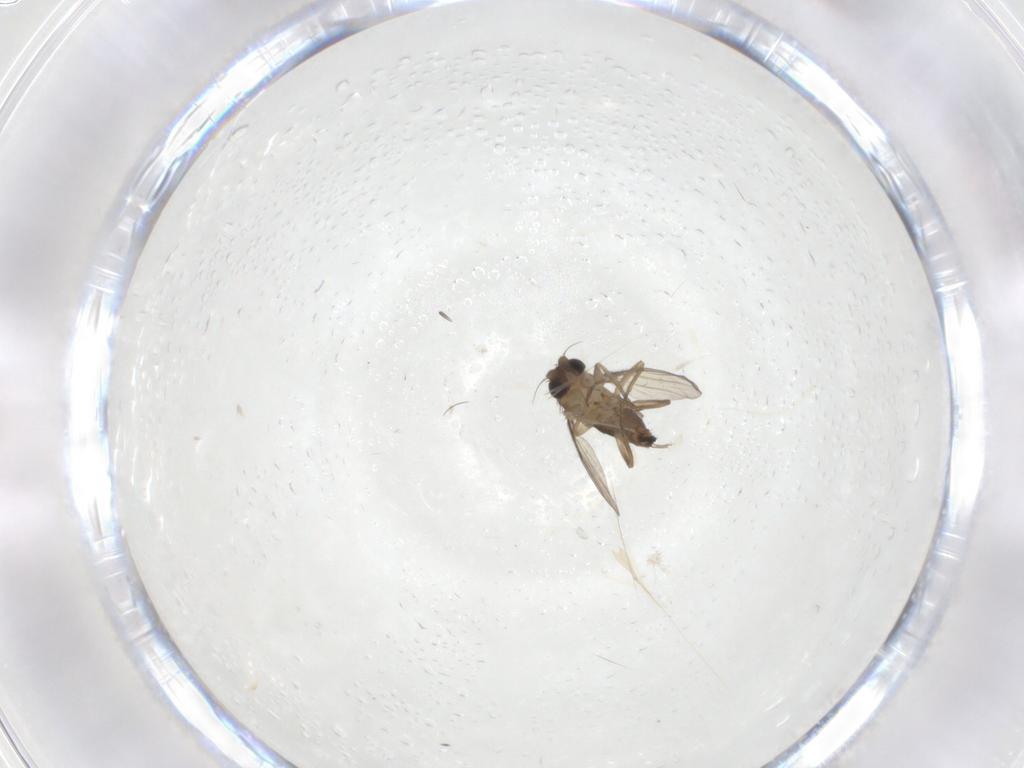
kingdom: Animalia
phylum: Arthropoda
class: Insecta
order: Diptera
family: Phoridae
